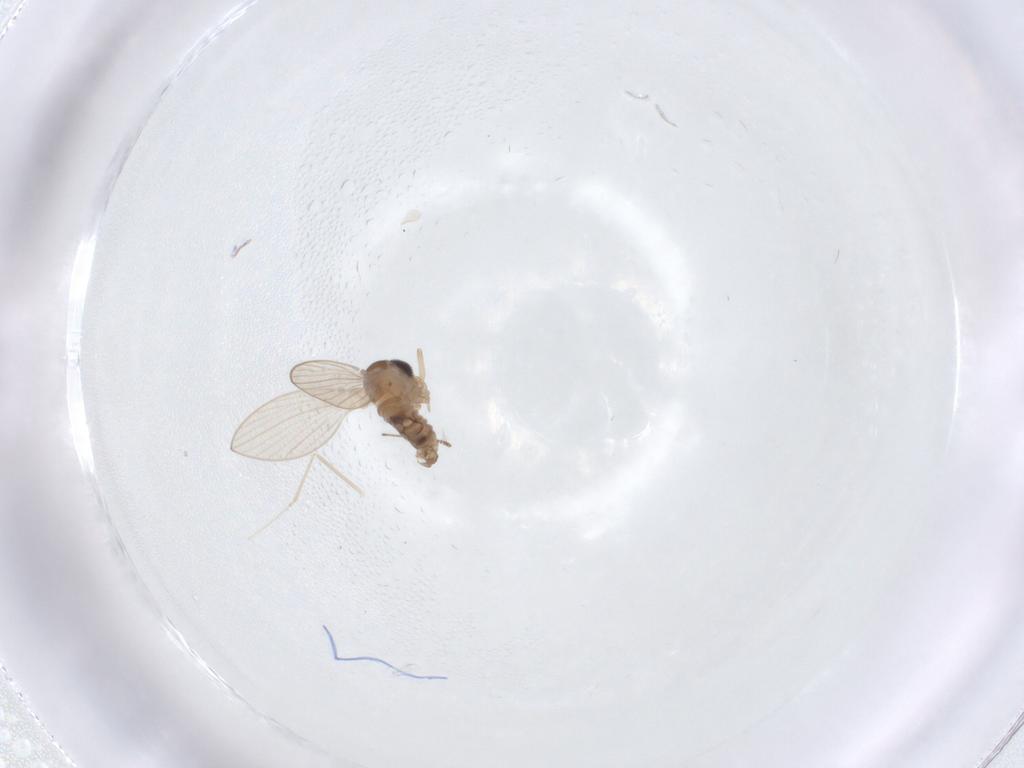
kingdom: Animalia
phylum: Arthropoda
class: Insecta
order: Diptera
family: Psychodidae
